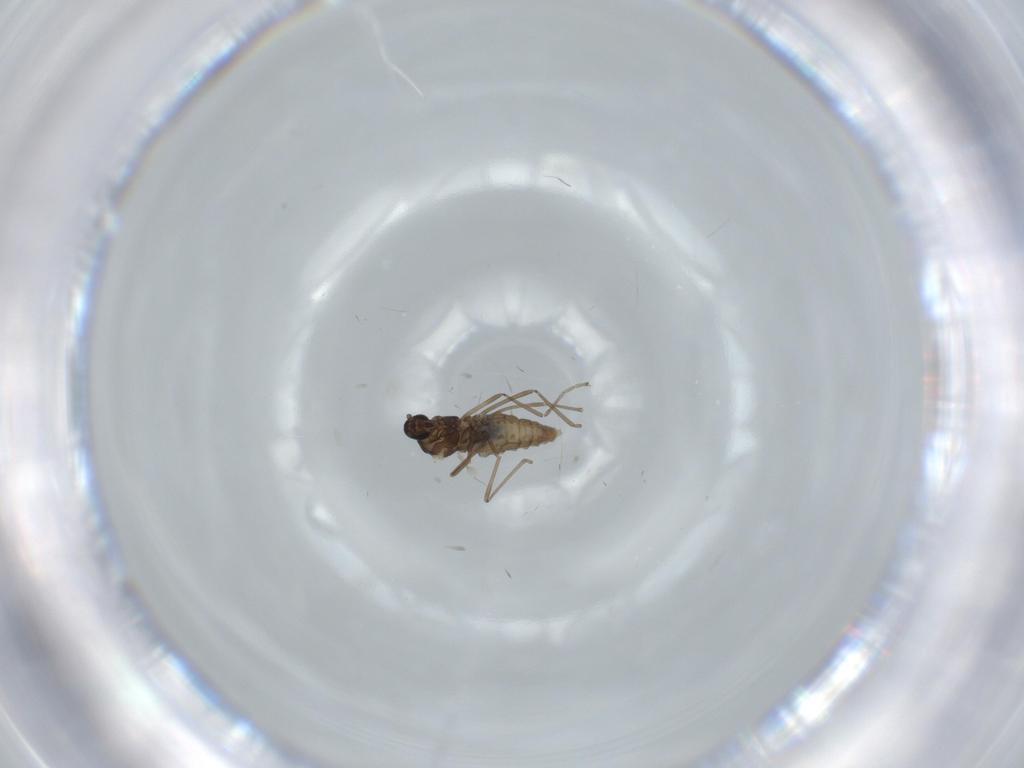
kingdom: Animalia
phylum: Arthropoda
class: Insecta
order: Diptera
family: Cecidomyiidae
